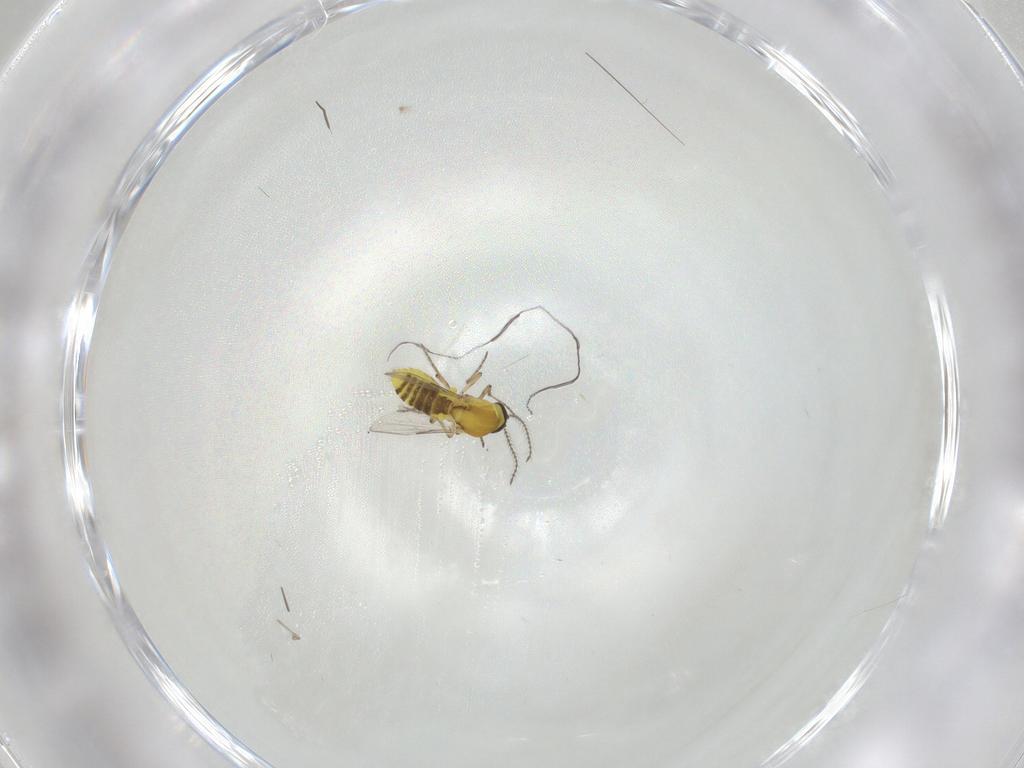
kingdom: Animalia
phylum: Arthropoda
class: Insecta
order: Diptera
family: Ceratopogonidae
